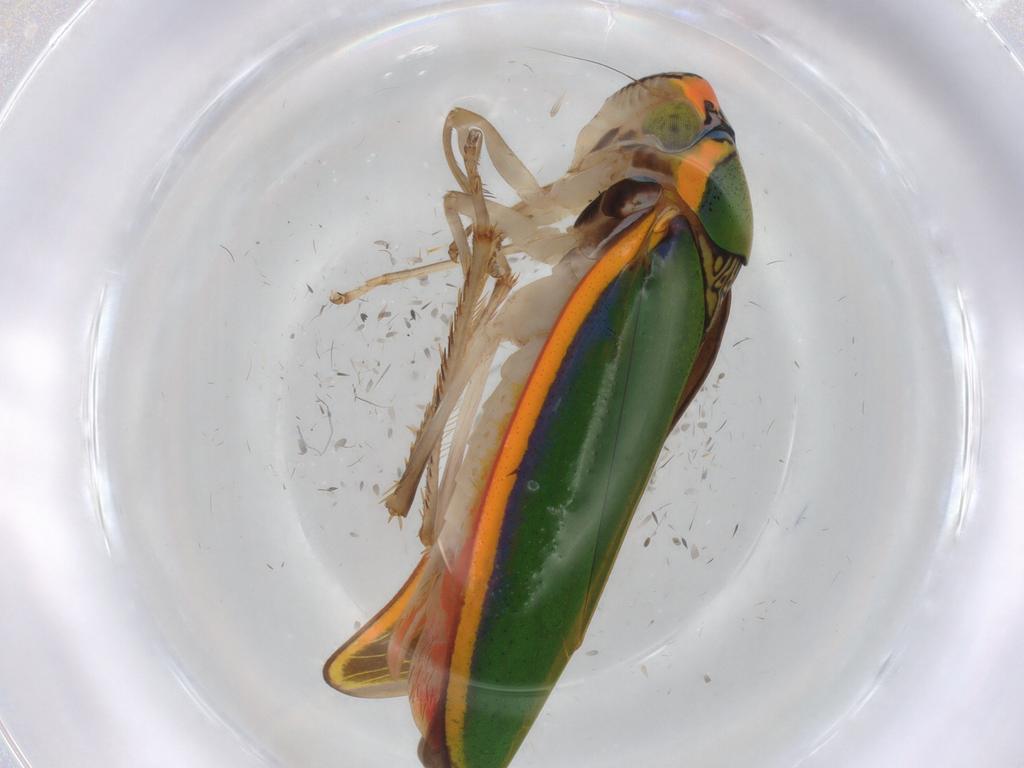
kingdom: Animalia
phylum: Arthropoda
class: Insecta
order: Hemiptera
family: Cicadellidae
